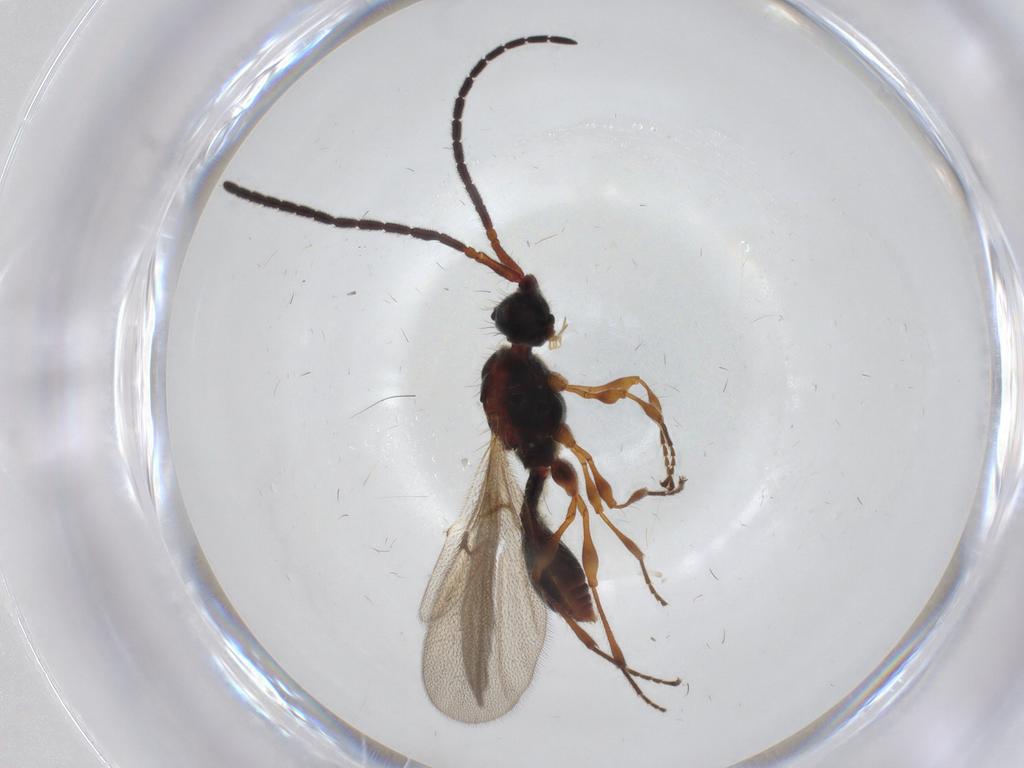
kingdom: Animalia
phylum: Arthropoda
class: Insecta
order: Hymenoptera
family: Diapriidae
